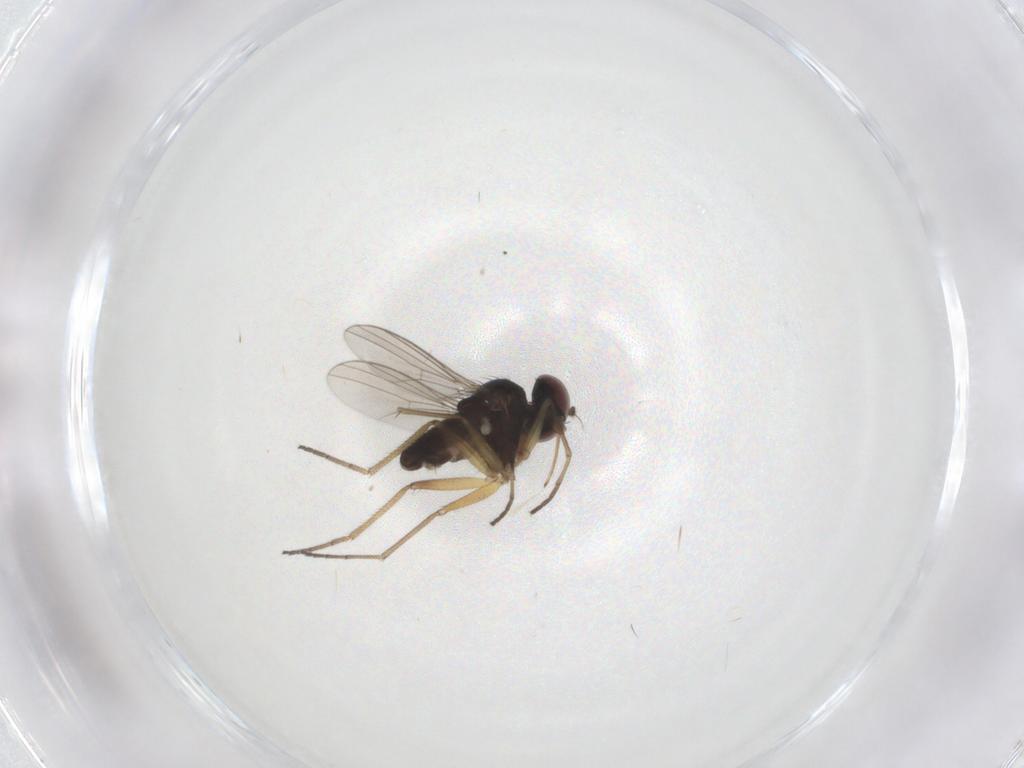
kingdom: Animalia
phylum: Arthropoda
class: Insecta
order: Diptera
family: Dolichopodidae
